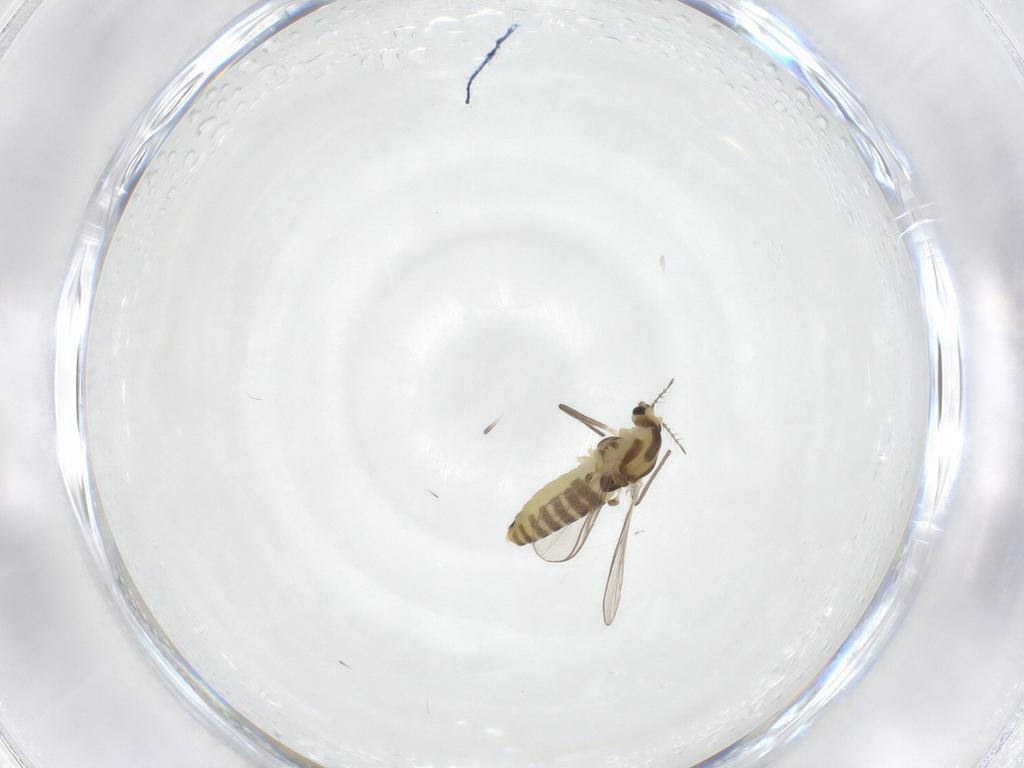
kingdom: Animalia
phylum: Arthropoda
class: Insecta
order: Diptera
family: Chironomidae
